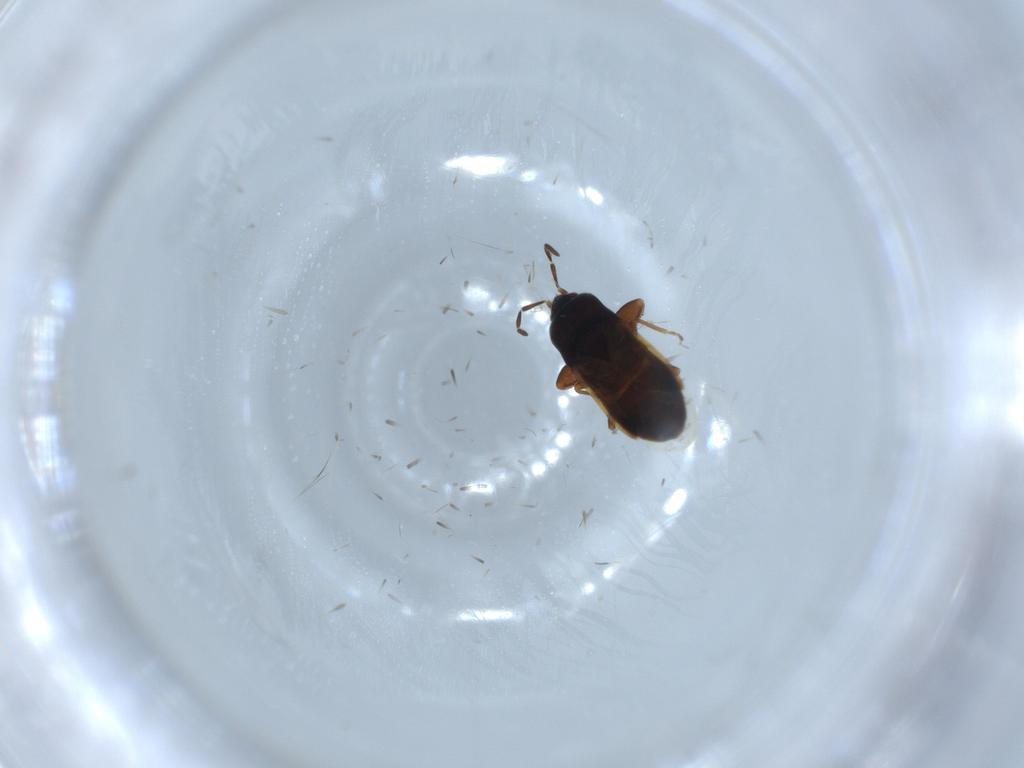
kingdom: Animalia
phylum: Arthropoda
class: Insecta
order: Hemiptera
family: Rhyparochromidae
